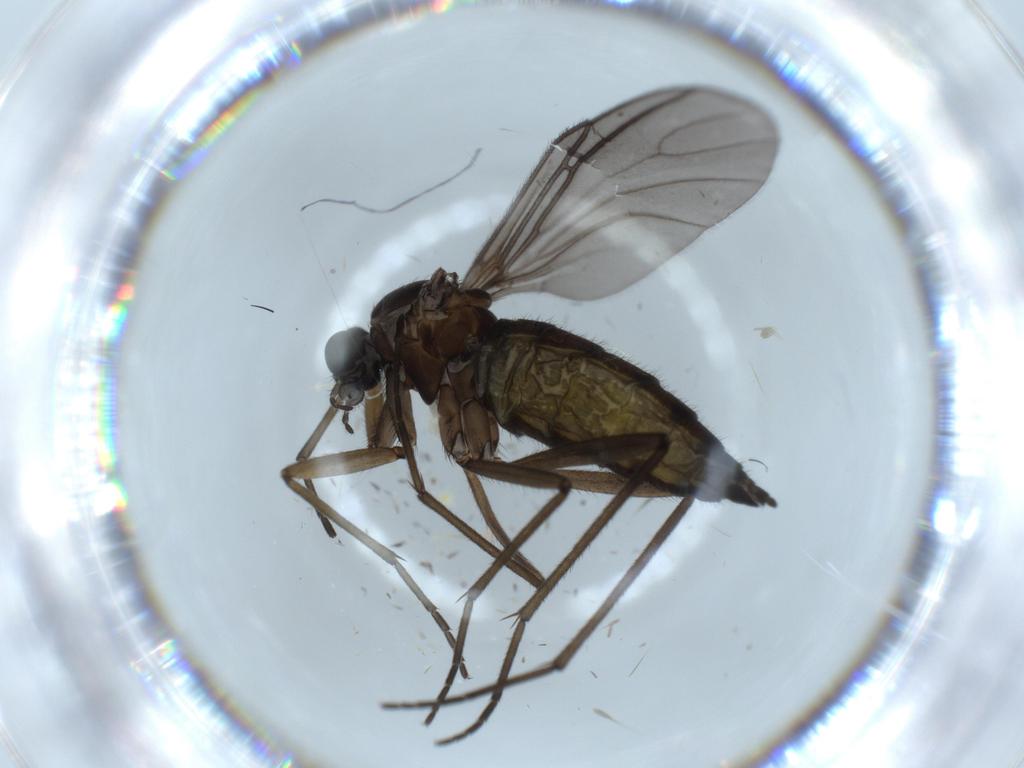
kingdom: Animalia
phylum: Arthropoda
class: Insecta
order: Diptera
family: Sciaridae
